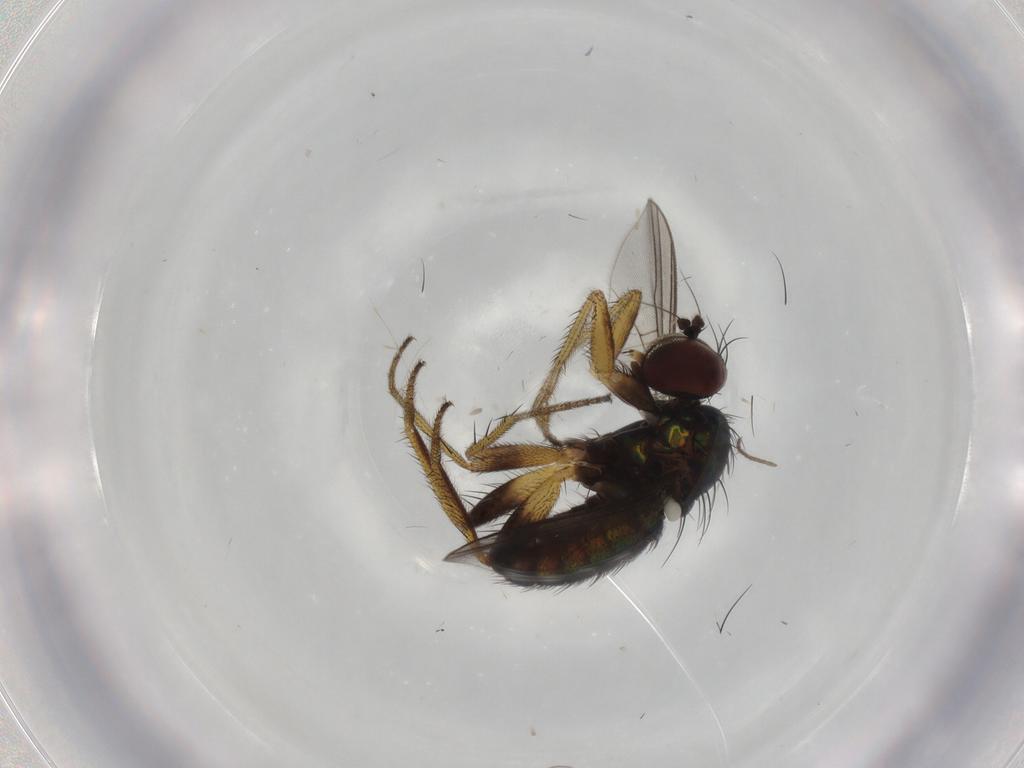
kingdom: Animalia
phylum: Arthropoda
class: Insecta
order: Diptera
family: Dolichopodidae
